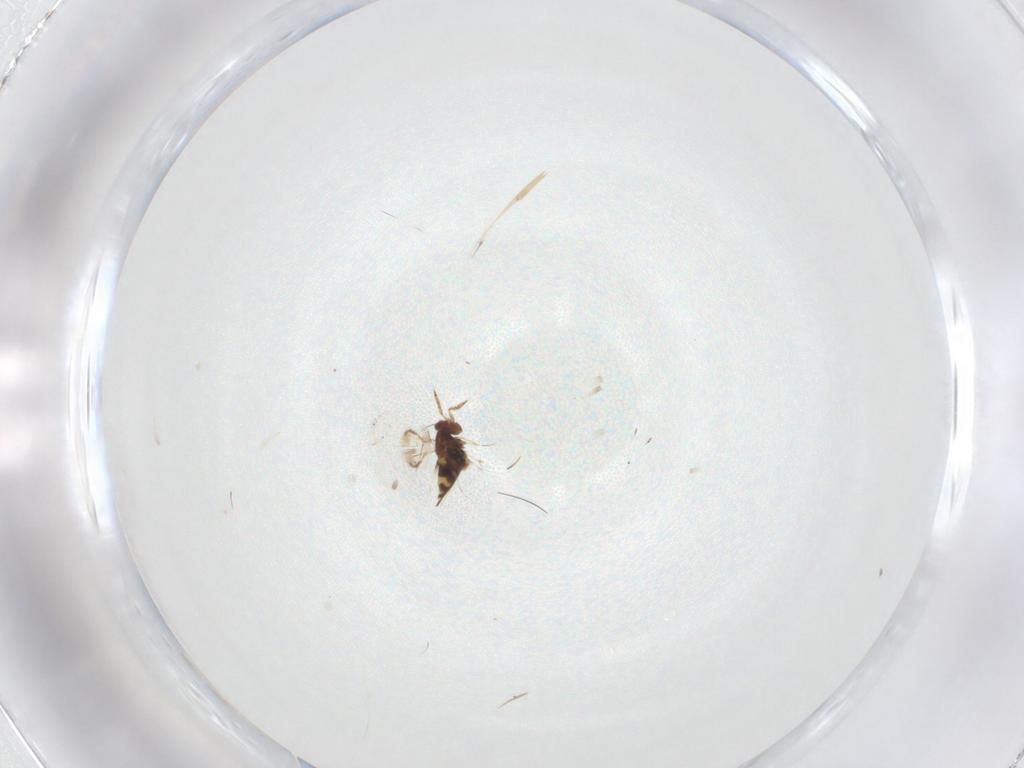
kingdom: Animalia
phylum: Arthropoda
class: Insecta
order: Hymenoptera
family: Trichogrammatidae
